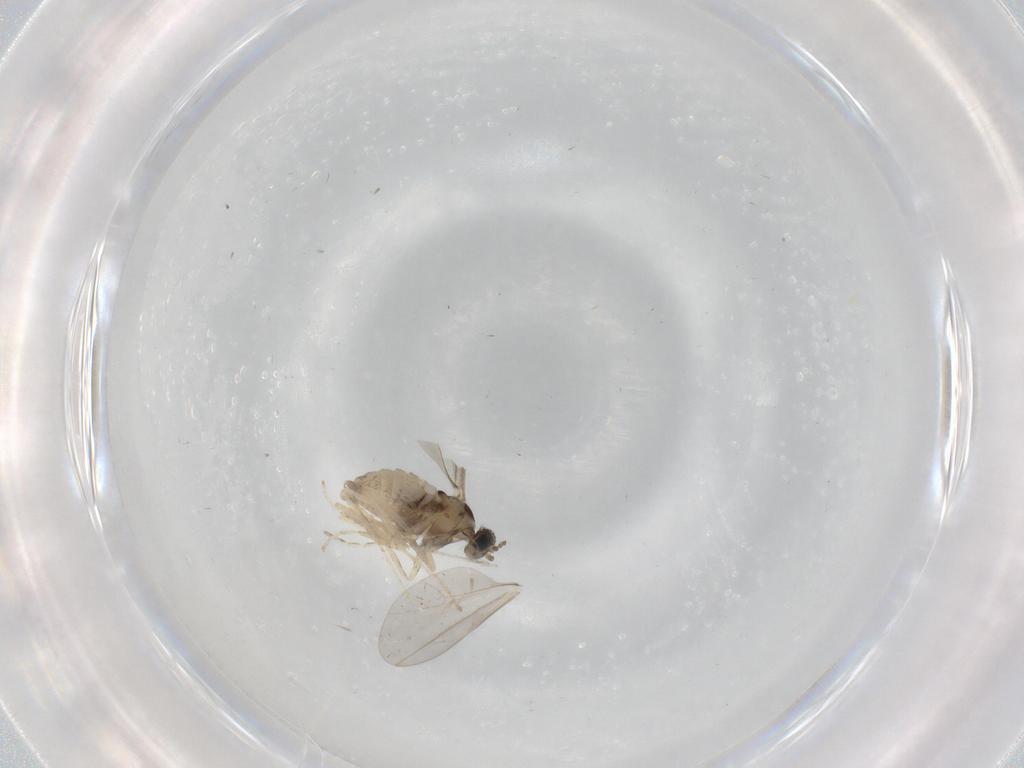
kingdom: Animalia
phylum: Arthropoda
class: Insecta
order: Diptera
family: Cecidomyiidae
